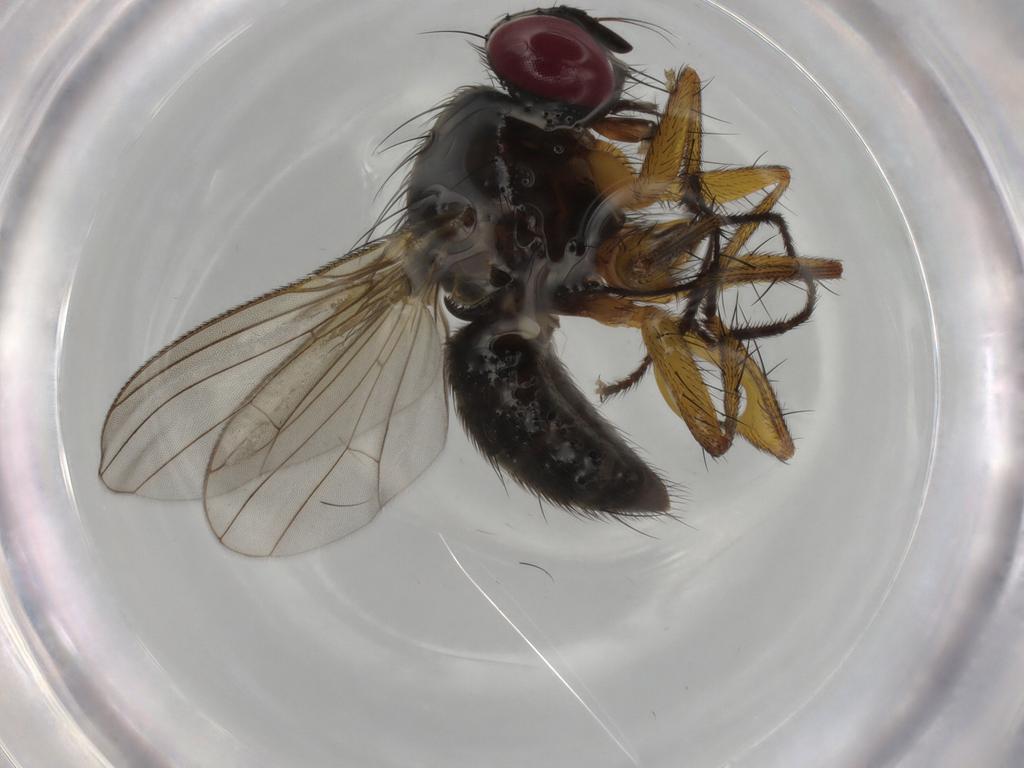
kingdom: Animalia
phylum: Arthropoda
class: Insecta
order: Diptera
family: Muscidae
